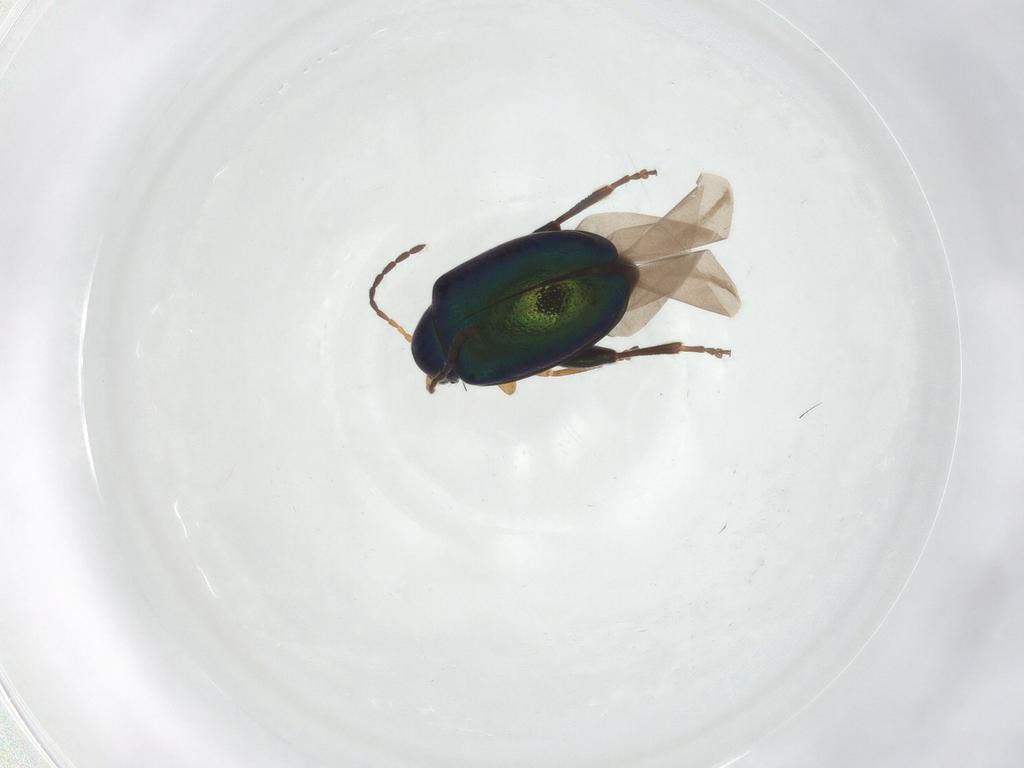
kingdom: Animalia
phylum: Arthropoda
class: Insecta
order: Coleoptera
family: Chrysomelidae
